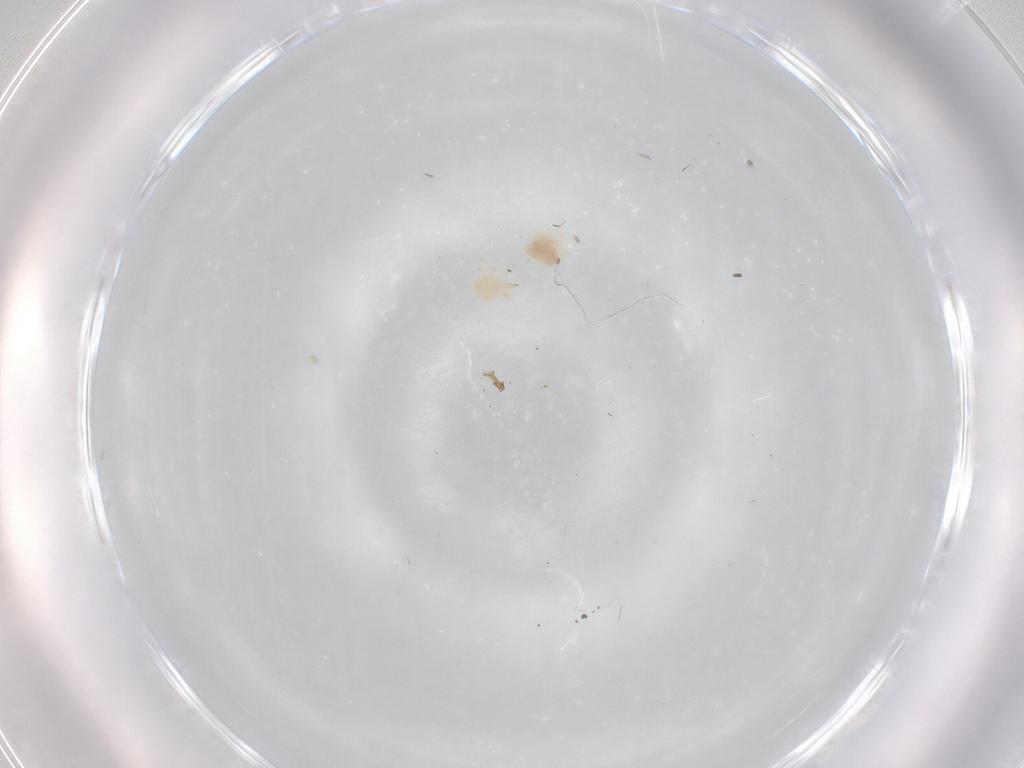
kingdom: Animalia
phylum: Arthropoda
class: Arachnida
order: Trombidiformes
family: Bdellidae
